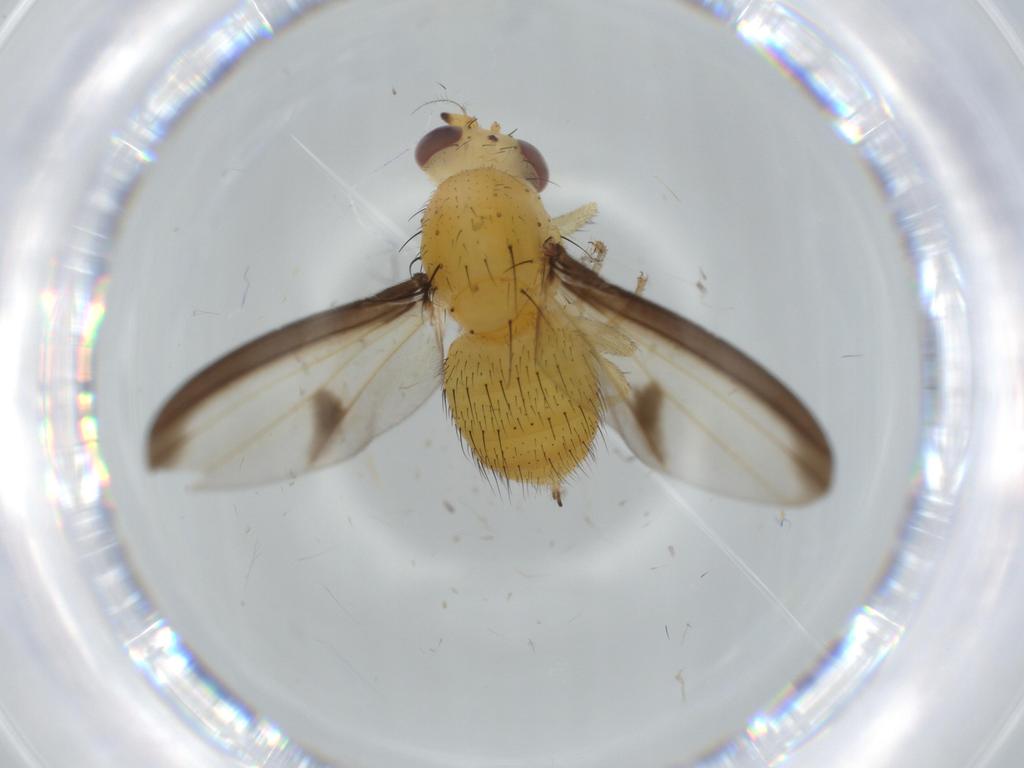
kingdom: Animalia
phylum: Arthropoda
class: Insecta
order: Diptera
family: Lauxaniidae
